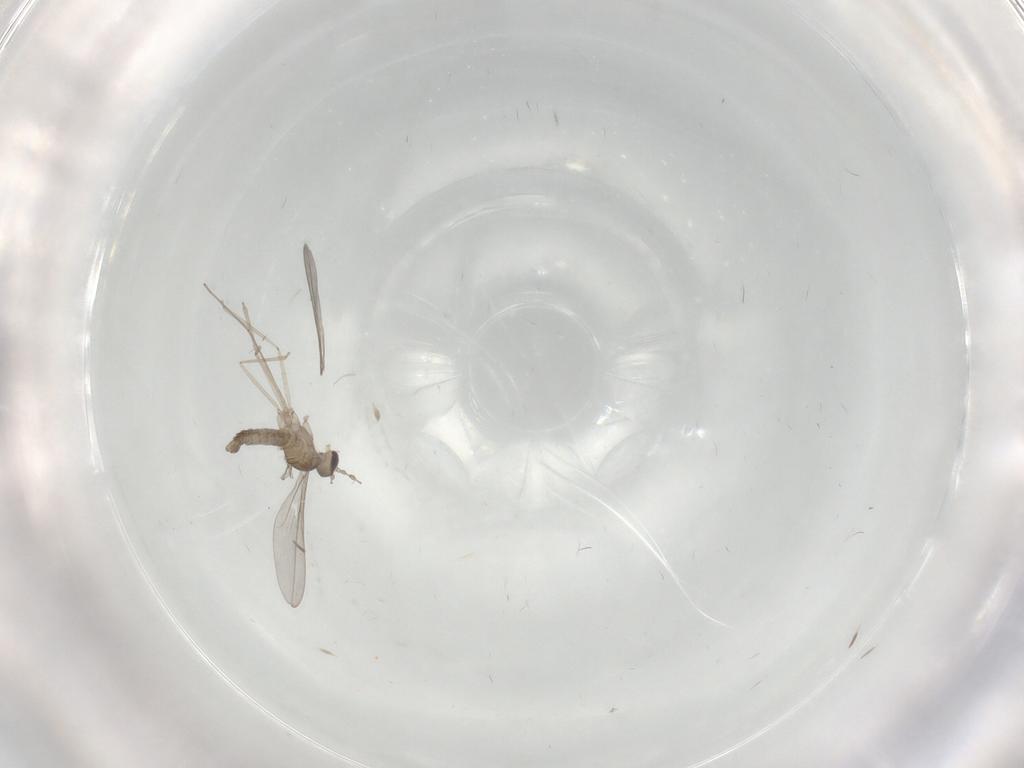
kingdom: Animalia
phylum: Arthropoda
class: Insecta
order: Diptera
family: Cecidomyiidae
